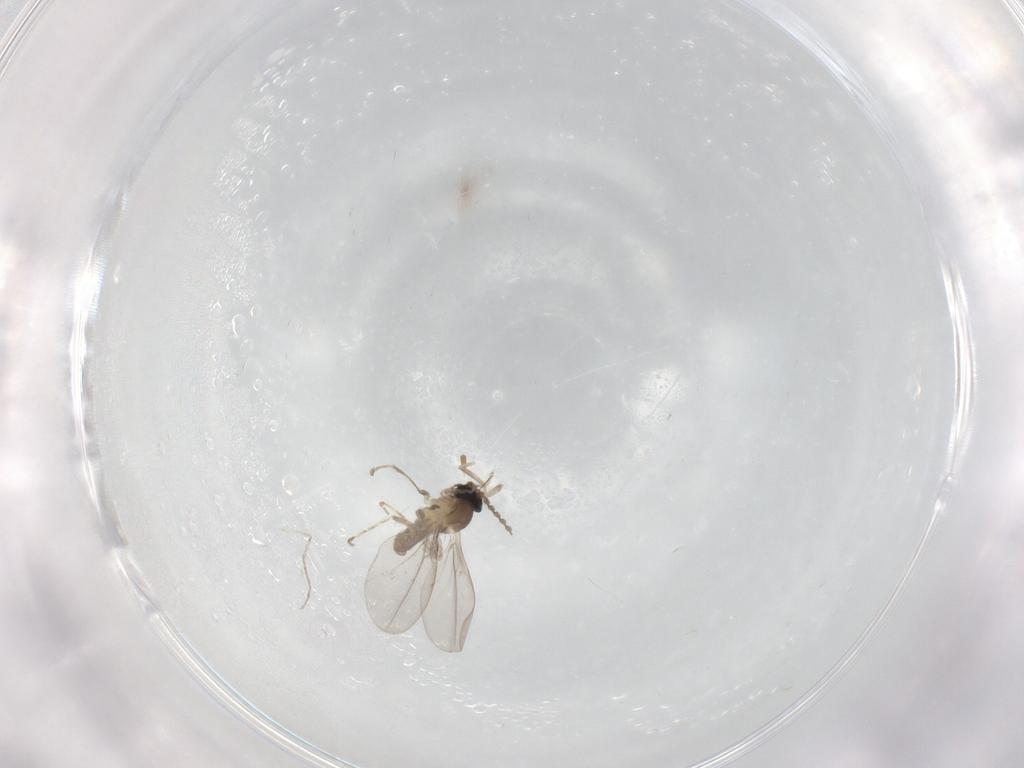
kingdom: Animalia
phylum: Arthropoda
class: Insecta
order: Diptera
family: Cecidomyiidae
